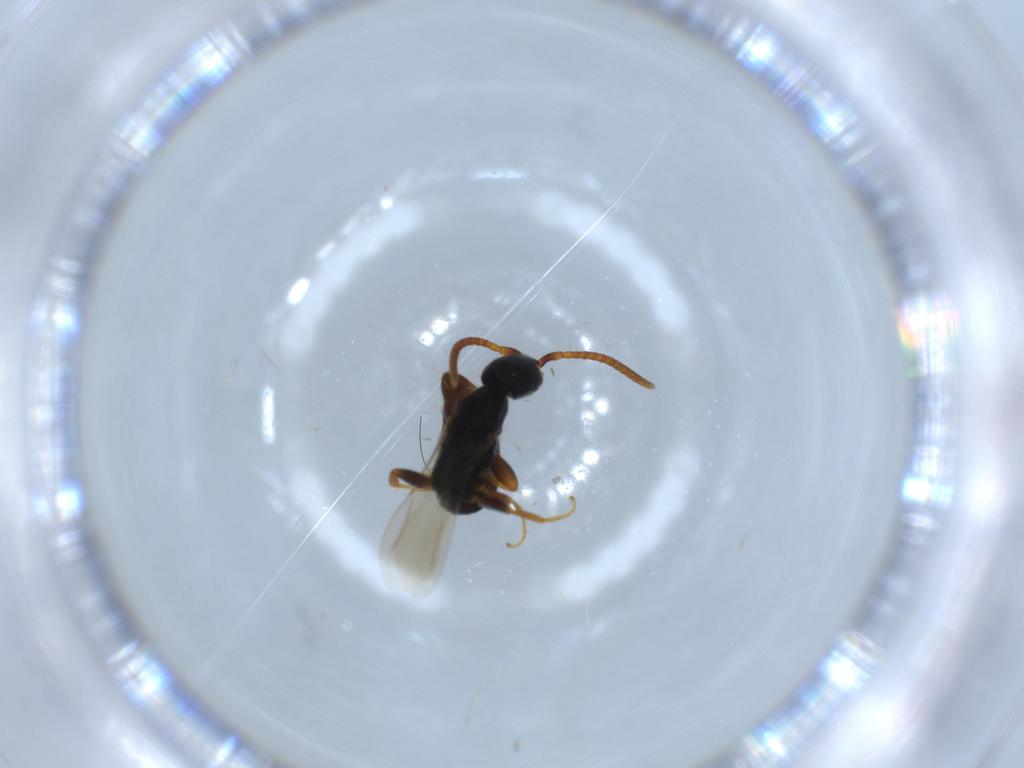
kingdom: Animalia
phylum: Arthropoda
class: Insecta
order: Hymenoptera
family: Bethylidae
